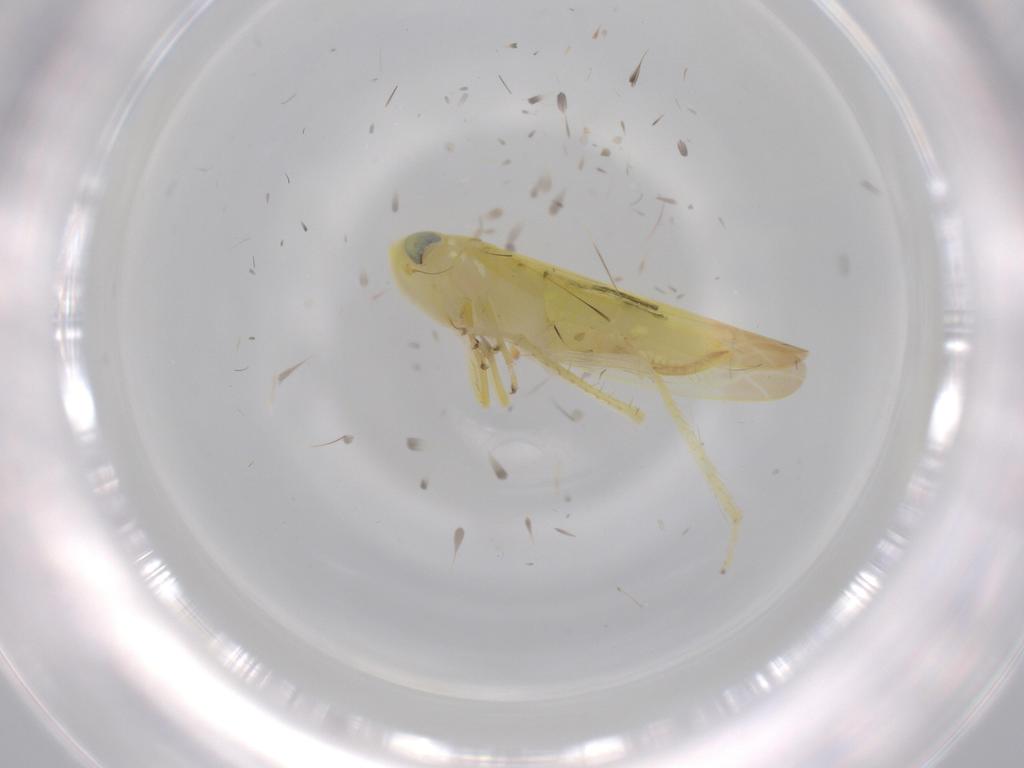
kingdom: Animalia
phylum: Arthropoda
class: Insecta
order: Hemiptera
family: Cicadellidae
